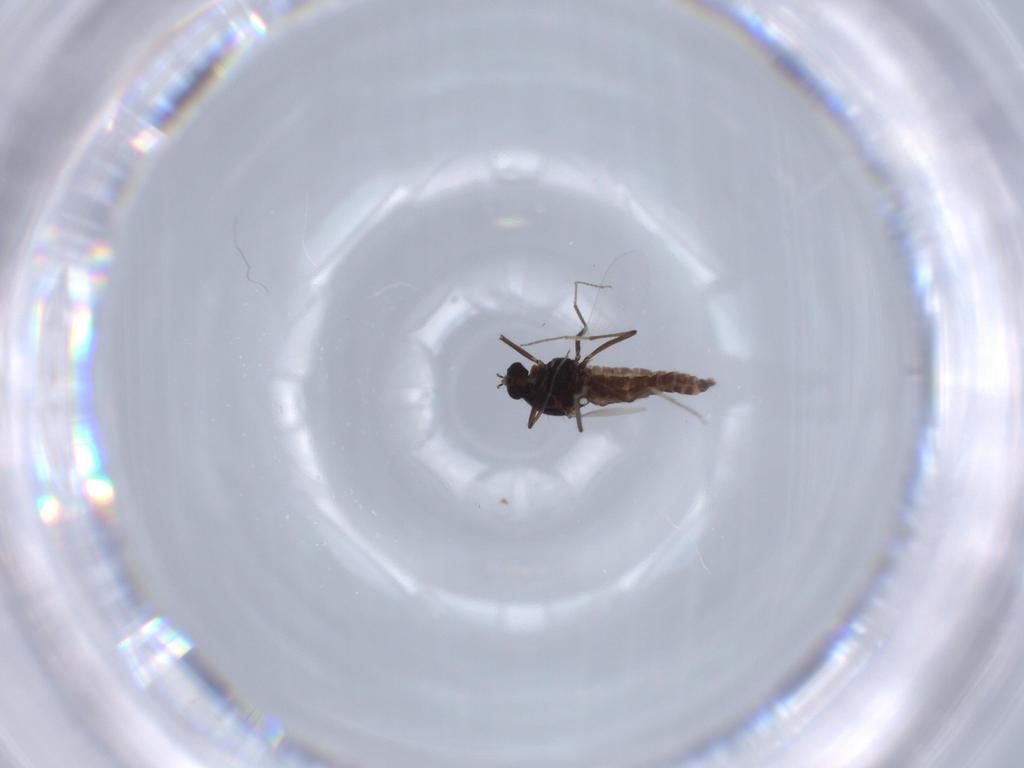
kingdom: Animalia
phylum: Arthropoda
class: Insecta
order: Diptera
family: Ceratopogonidae
